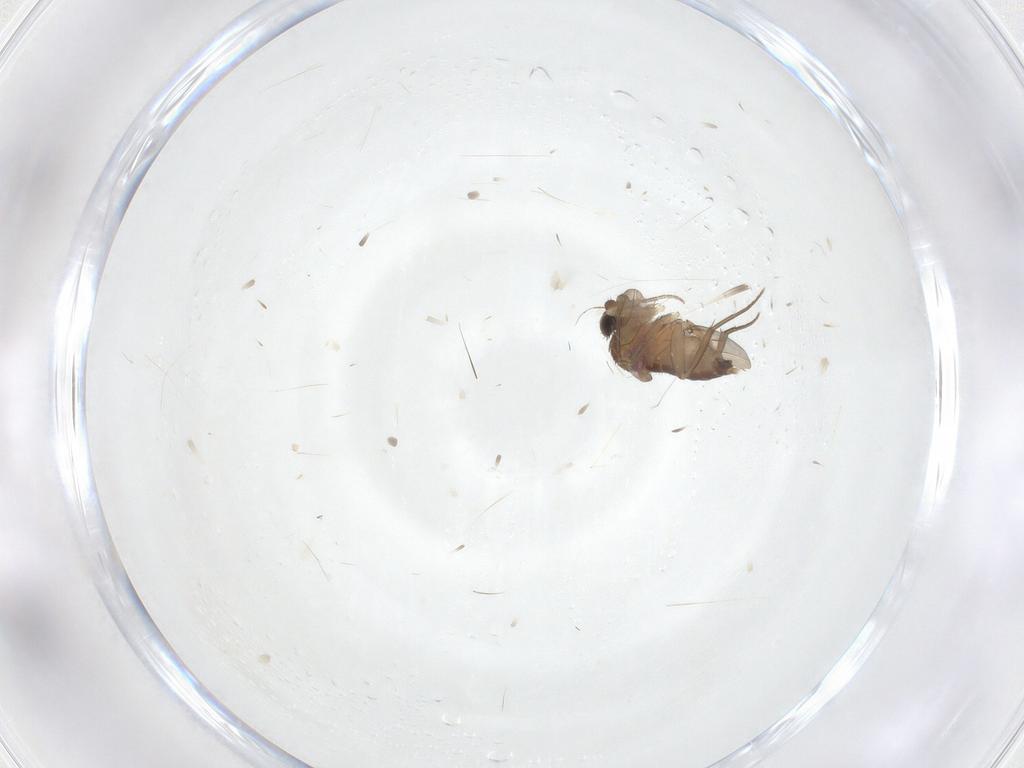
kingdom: Animalia
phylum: Arthropoda
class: Insecta
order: Diptera
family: Phoridae
